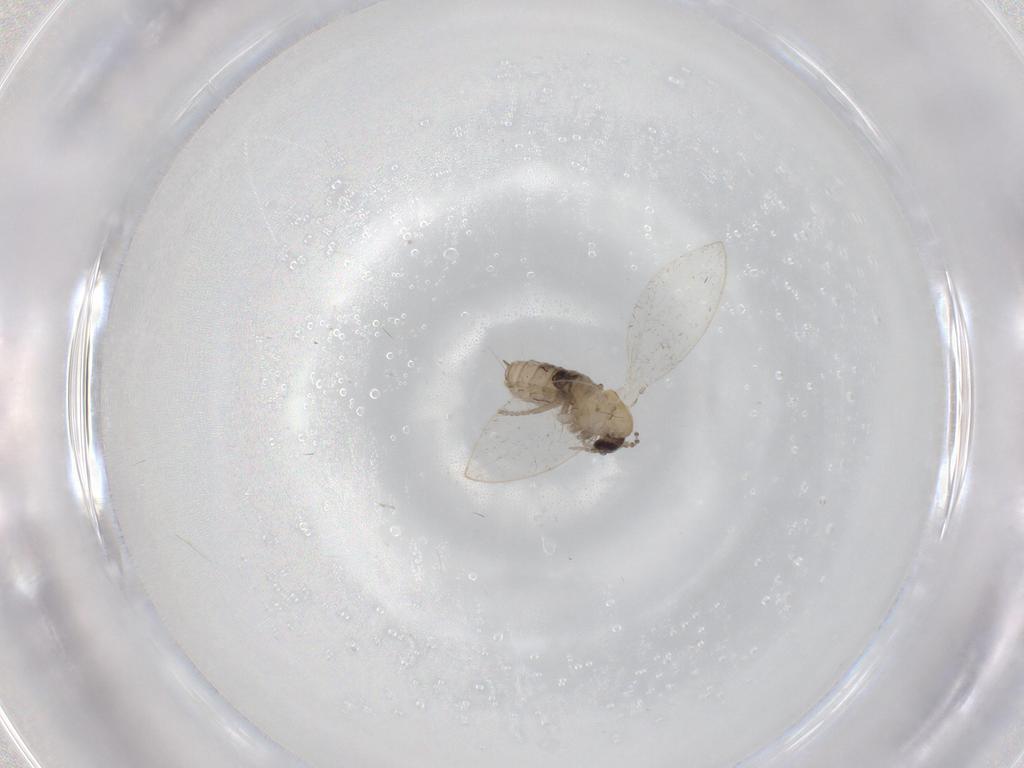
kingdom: Animalia
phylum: Arthropoda
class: Insecta
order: Diptera
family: Psychodidae
